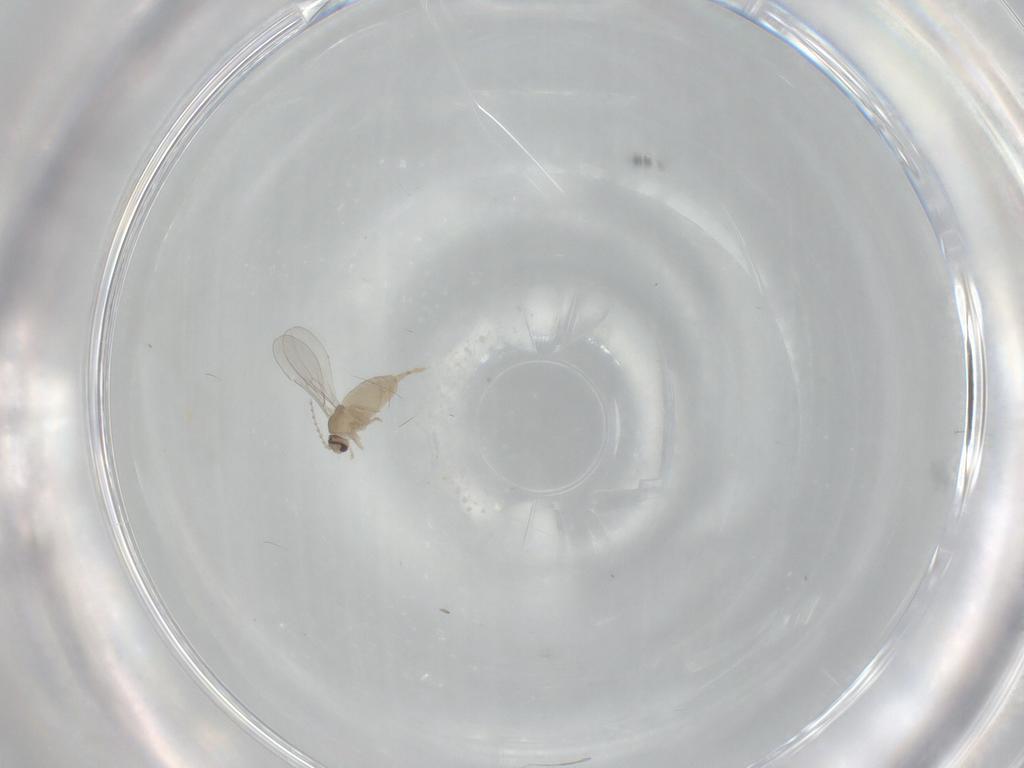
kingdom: Animalia
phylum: Arthropoda
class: Insecta
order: Diptera
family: Cecidomyiidae
